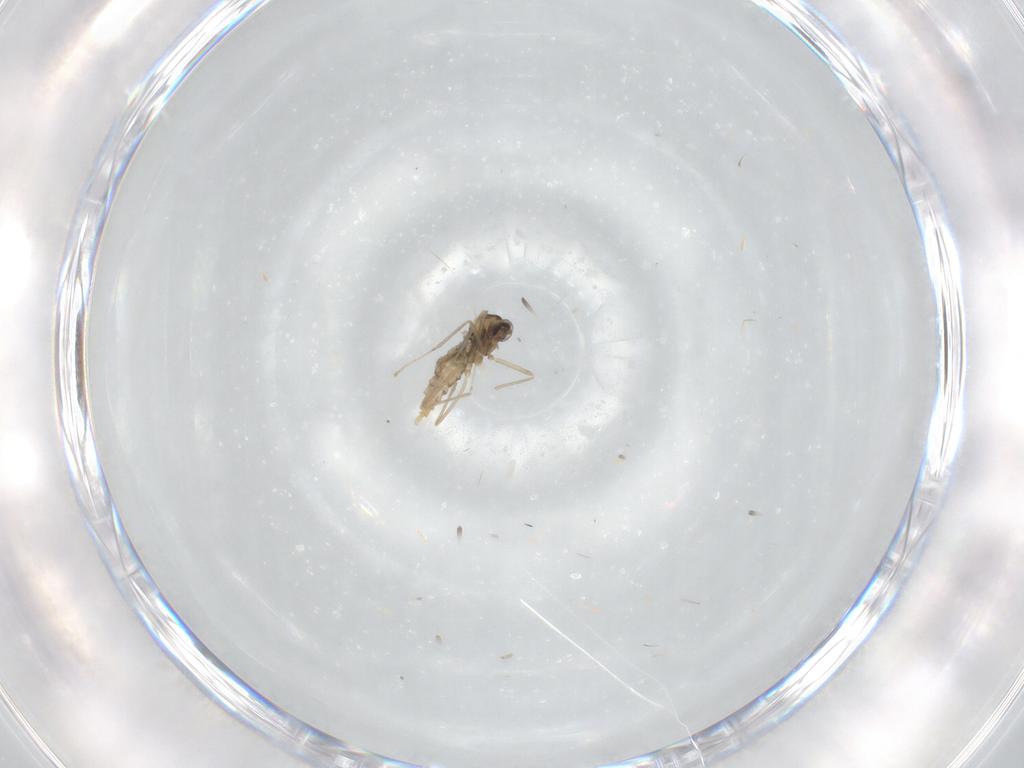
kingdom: Animalia
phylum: Arthropoda
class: Insecta
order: Diptera
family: Cecidomyiidae
